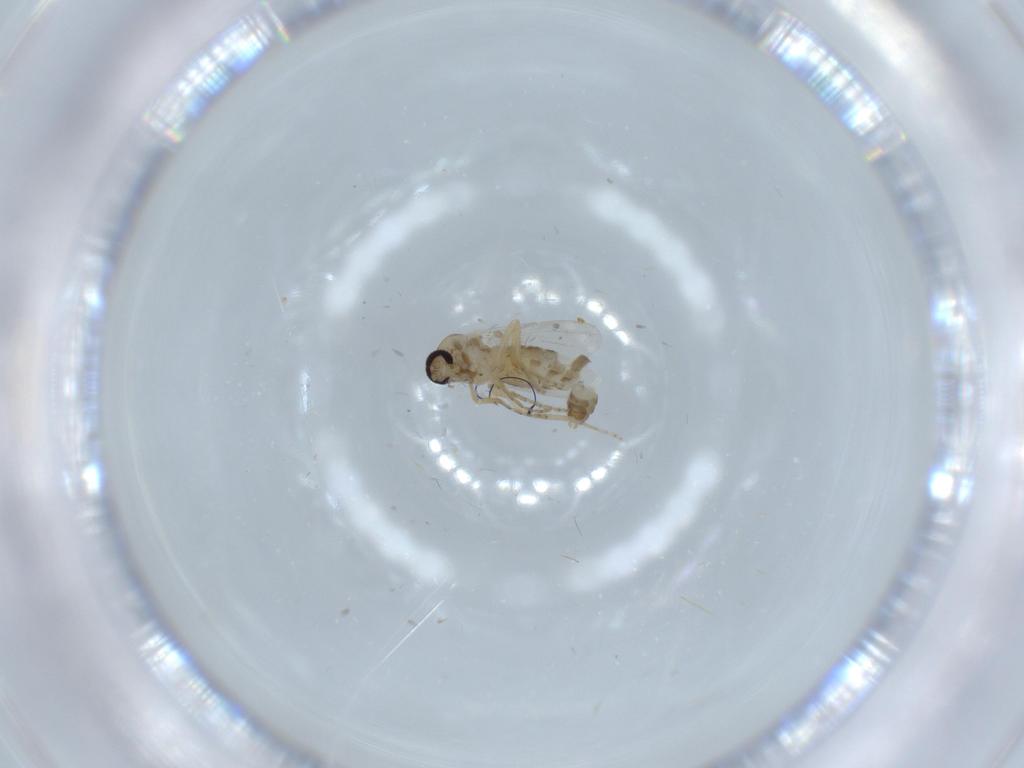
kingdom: Animalia
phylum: Arthropoda
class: Insecta
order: Diptera
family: Ceratopogonidae
